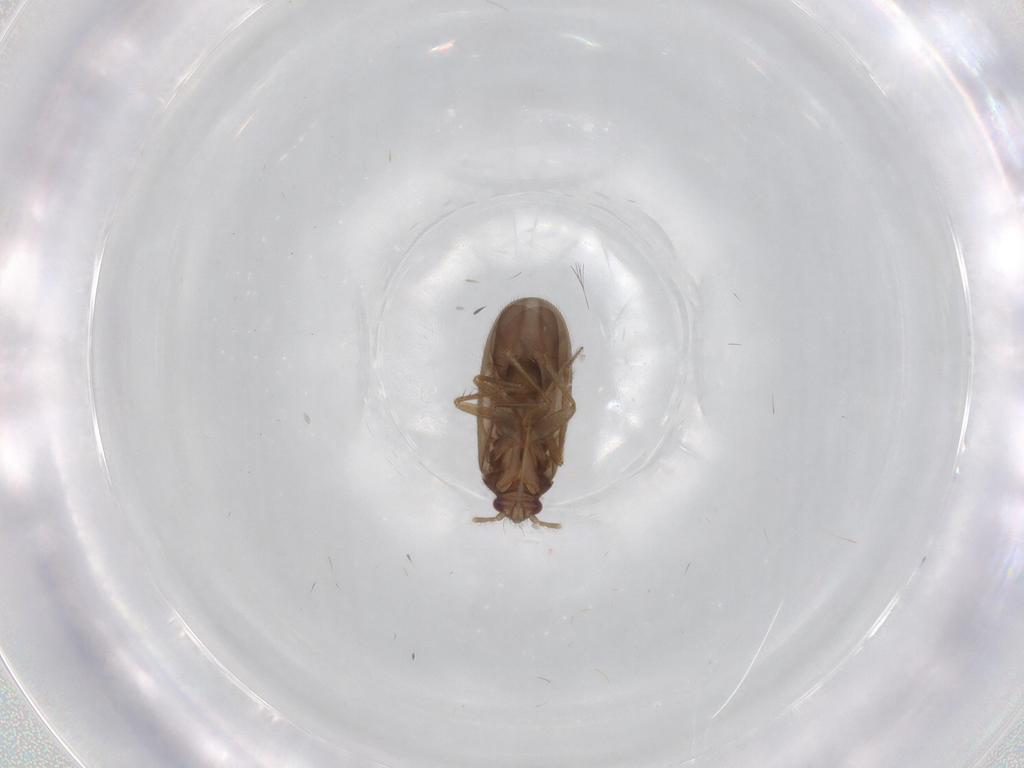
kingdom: Animalia
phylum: Arthropoda
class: Insecta
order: Hemiptera
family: Ceratocombidae
